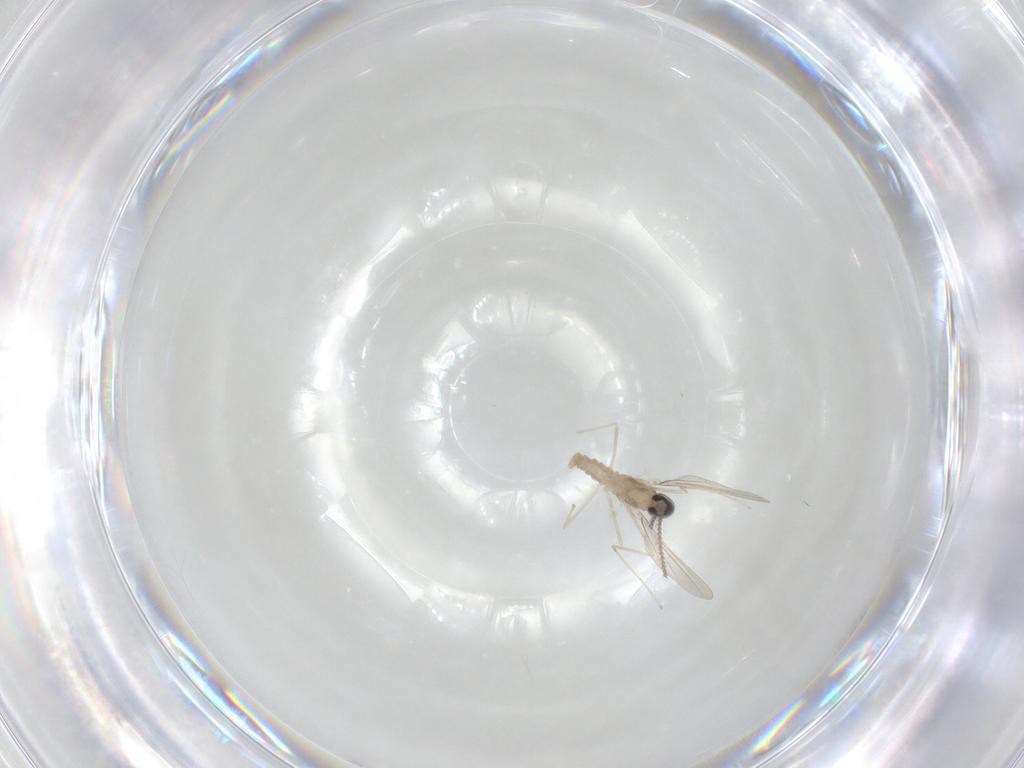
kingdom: Animalia
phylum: Arthropoda
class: Insecta
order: Diptera
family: Cecidomyiidae
